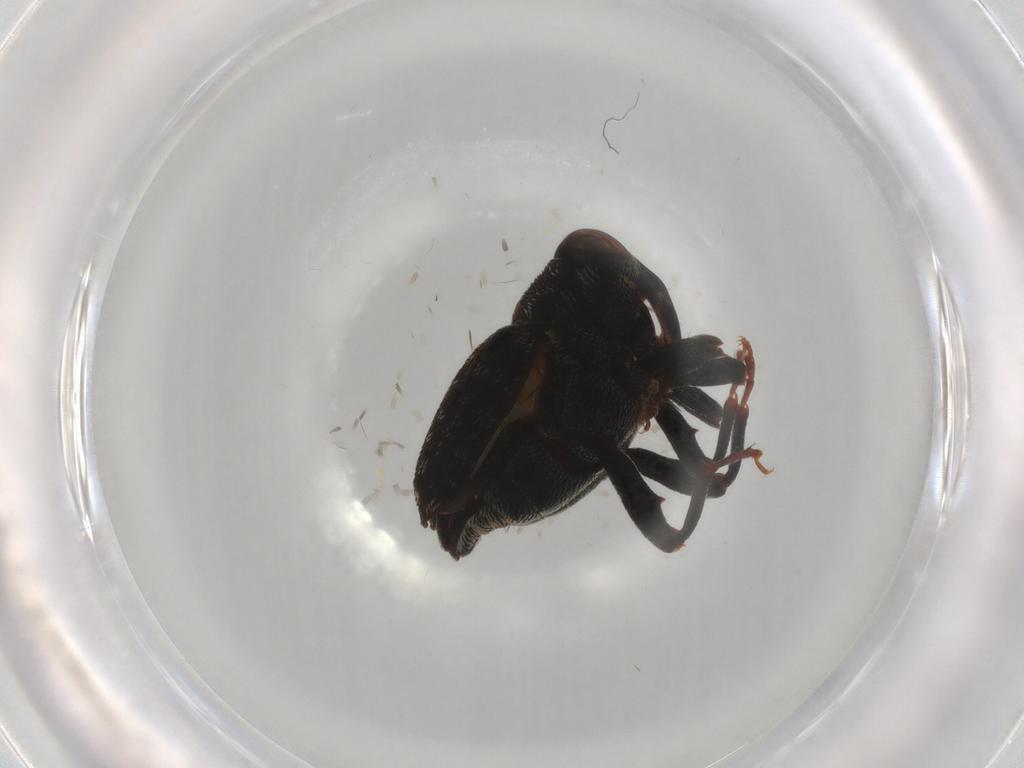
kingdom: Animalia
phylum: Arthropoda
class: Insecta
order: Coleoptera
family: Curculionidae
